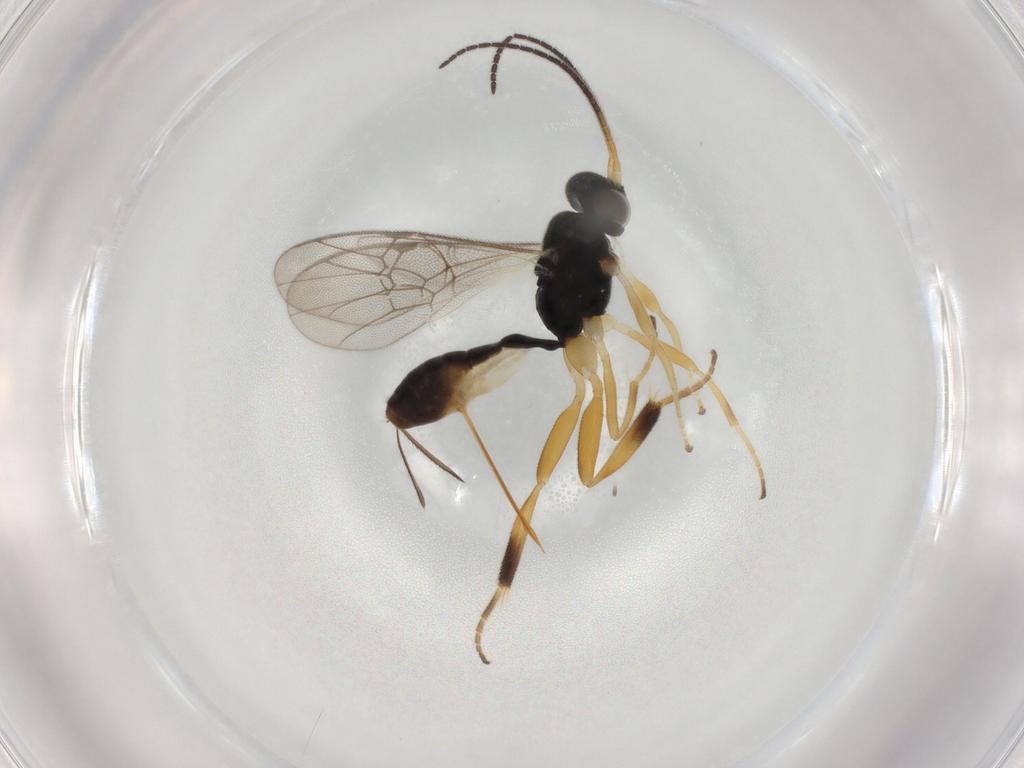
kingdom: Animalia
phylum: Arthropoda
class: Insecta
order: Hymenoptera
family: Ichneumonidae
